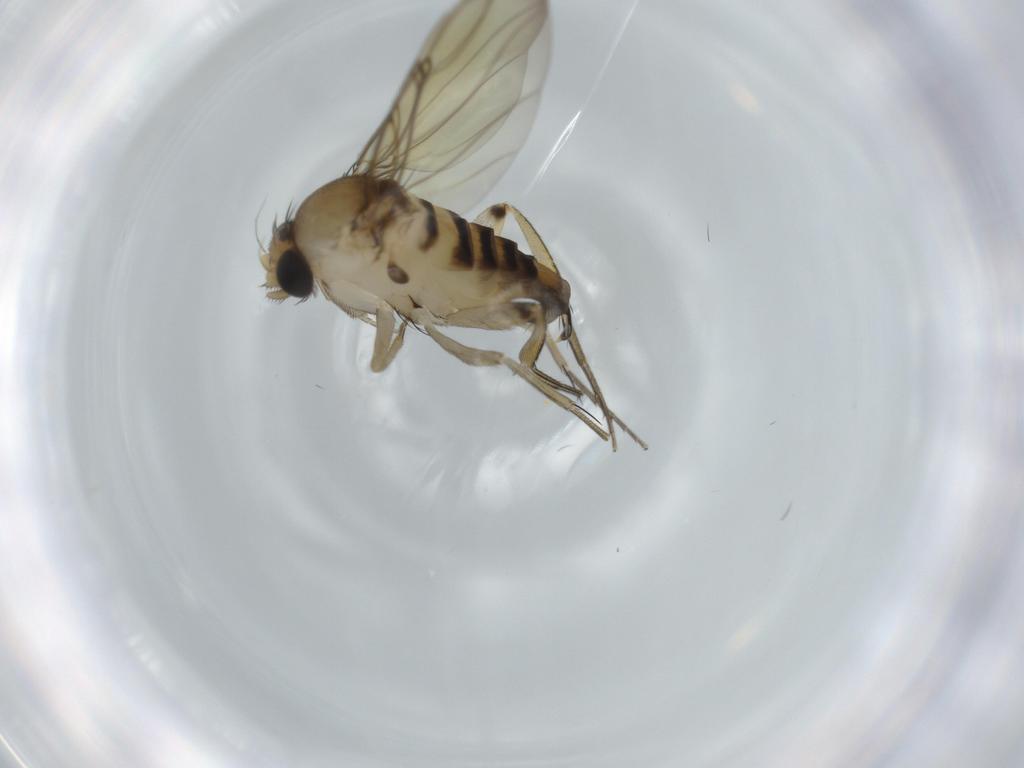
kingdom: Animalia
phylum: Arthropoda
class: Insecta
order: Diptera
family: Phoridae
